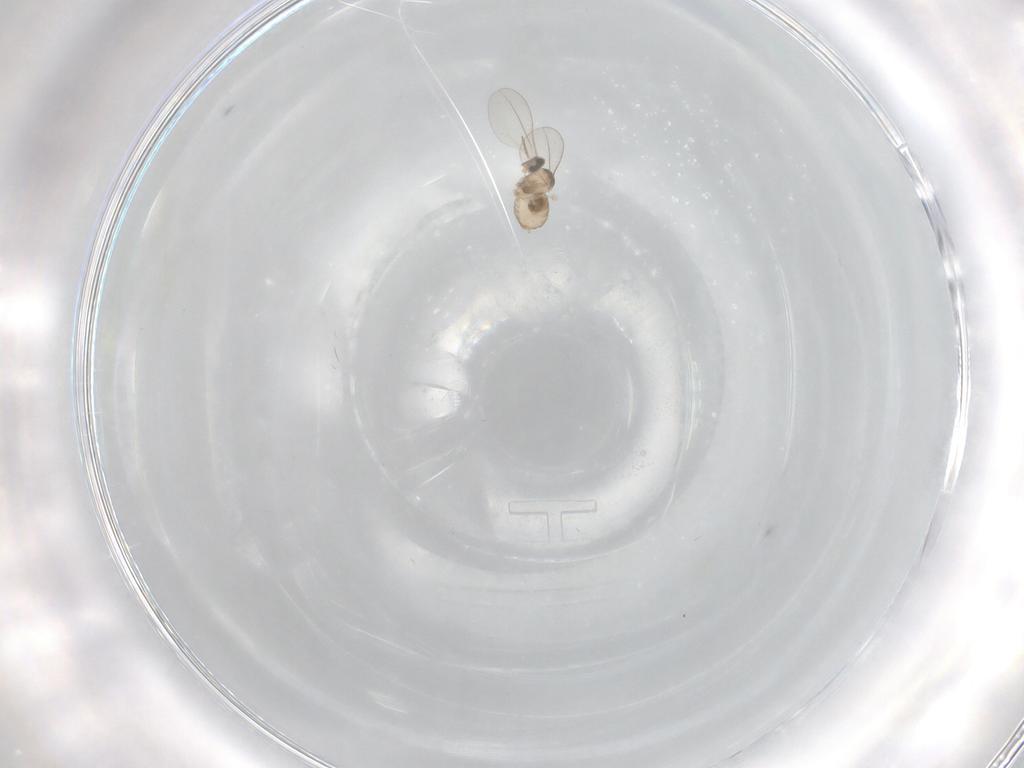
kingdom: Animalia
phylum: Arthropoda
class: Insecta
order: Diptera
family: Cecidomyiidae
